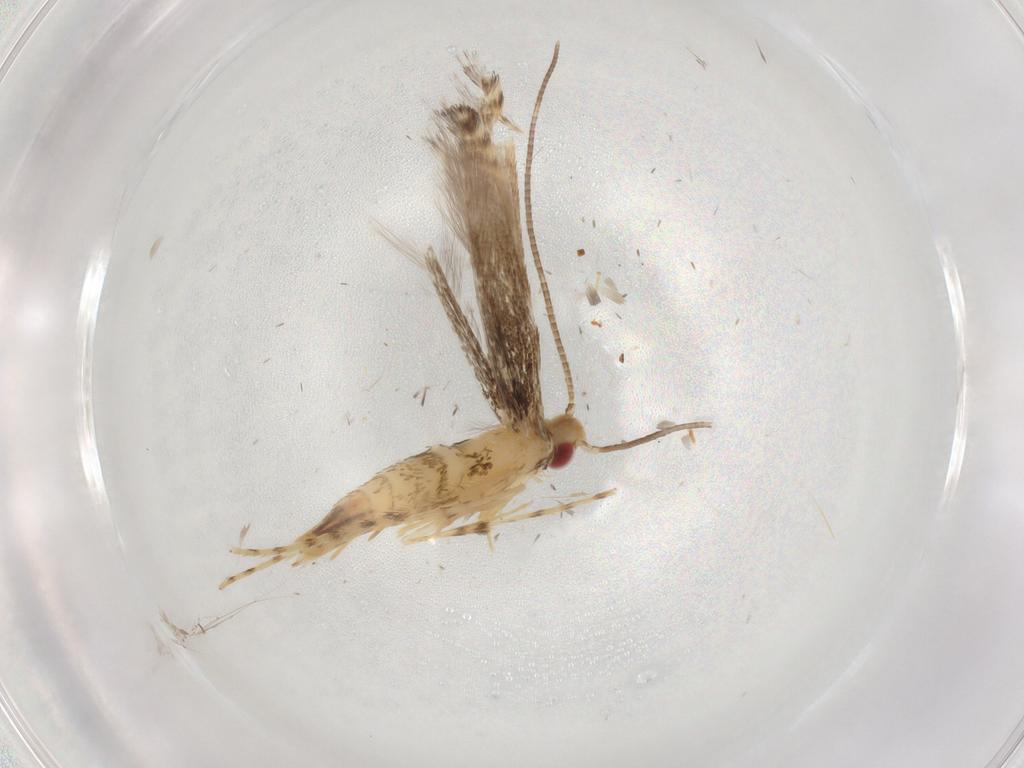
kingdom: Animalia
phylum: Arthropoda
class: Insecta
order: Lepidoptera
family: Gracillariidae
